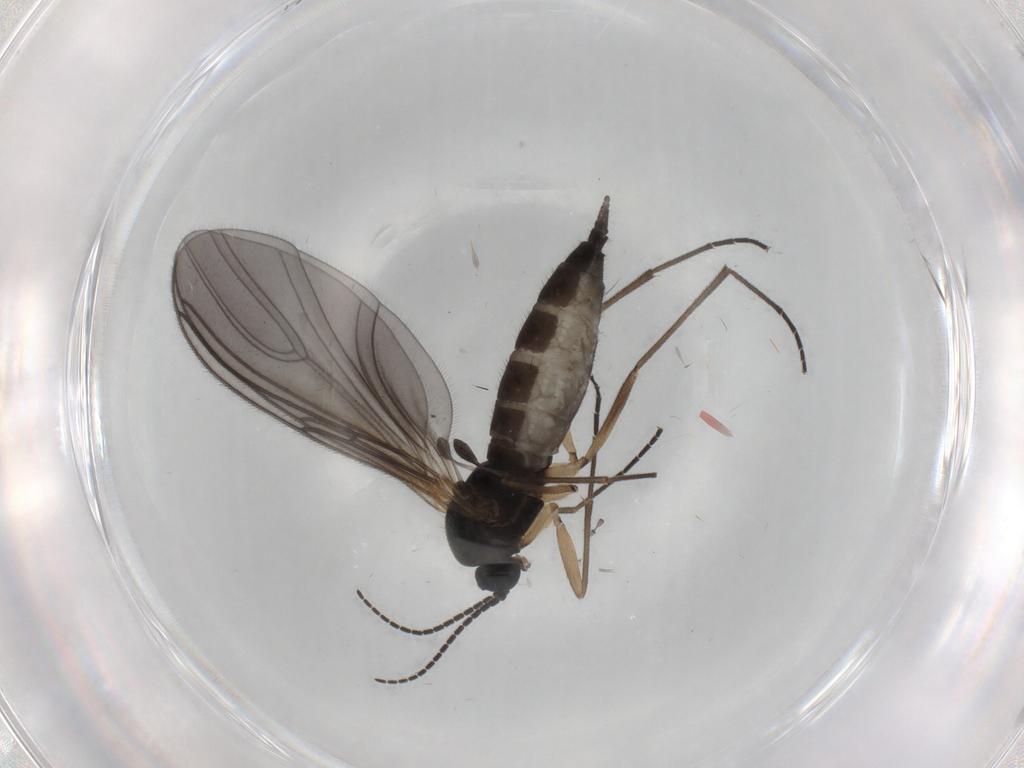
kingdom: Animalia
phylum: Arthropoda
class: Insecta
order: Diptera
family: Sciaridae
